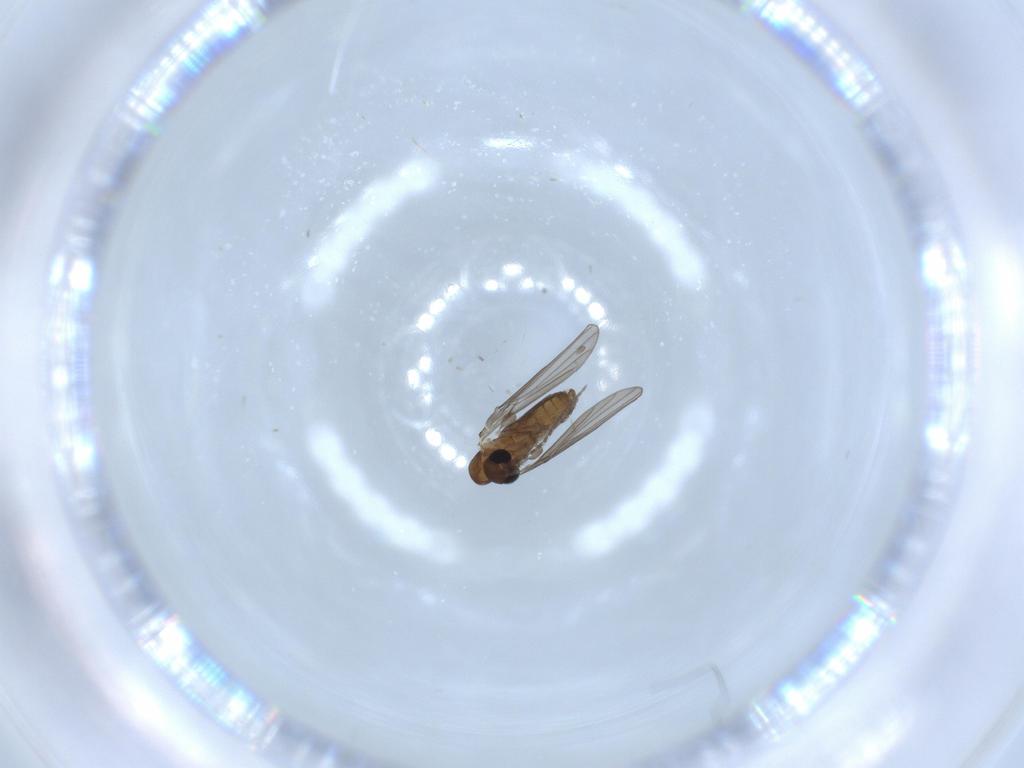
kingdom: Animalia
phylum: Arthropoda
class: Insecta
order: Diptera
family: Psychodidae
